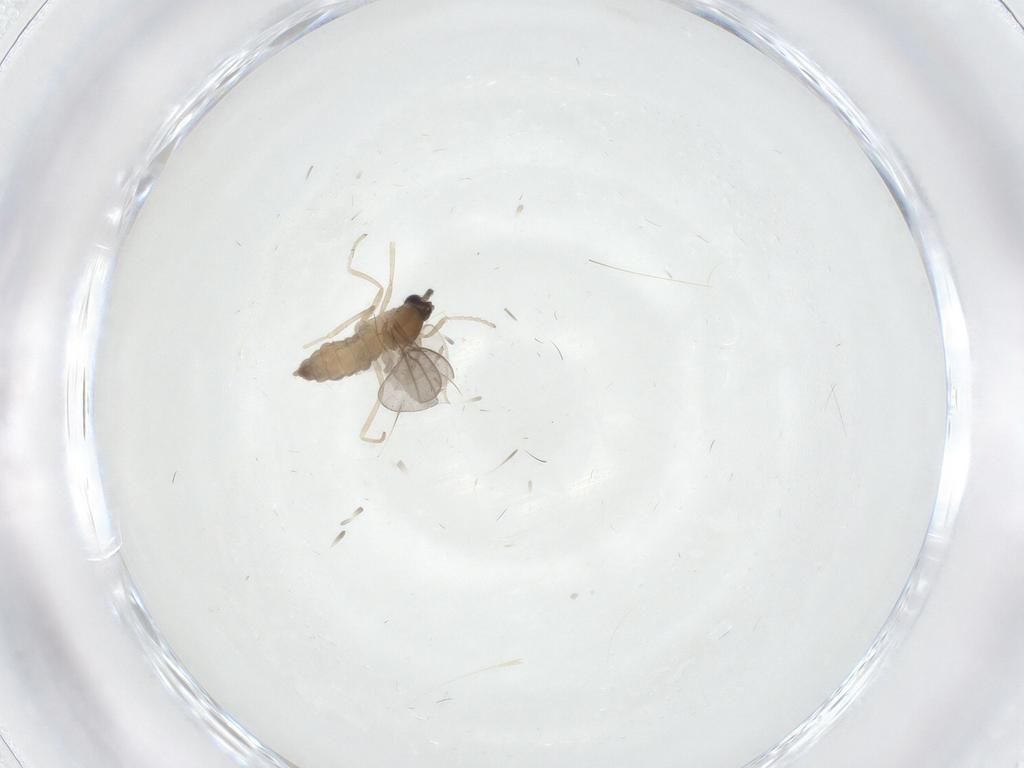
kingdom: Animalia
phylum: Arthropoda
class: Insecta
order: Diptera
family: Cecidomyiidae
